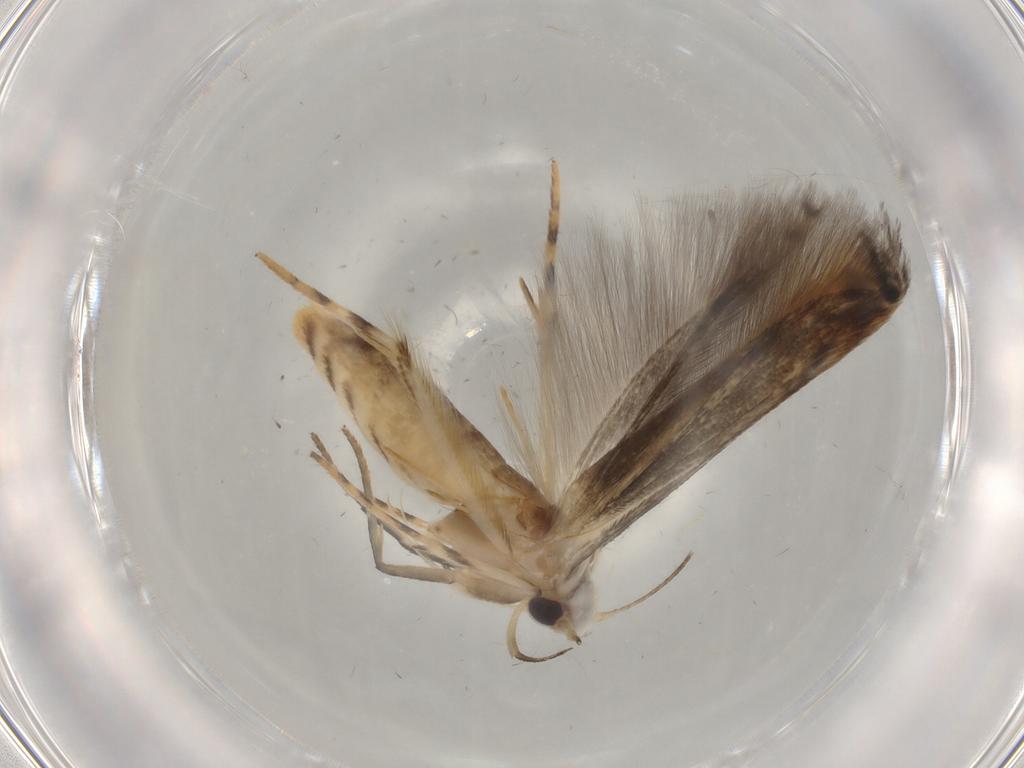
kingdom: Animalia
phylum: Arthropoda
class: Insecta
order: Lepidoptera
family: Gelechiidae
